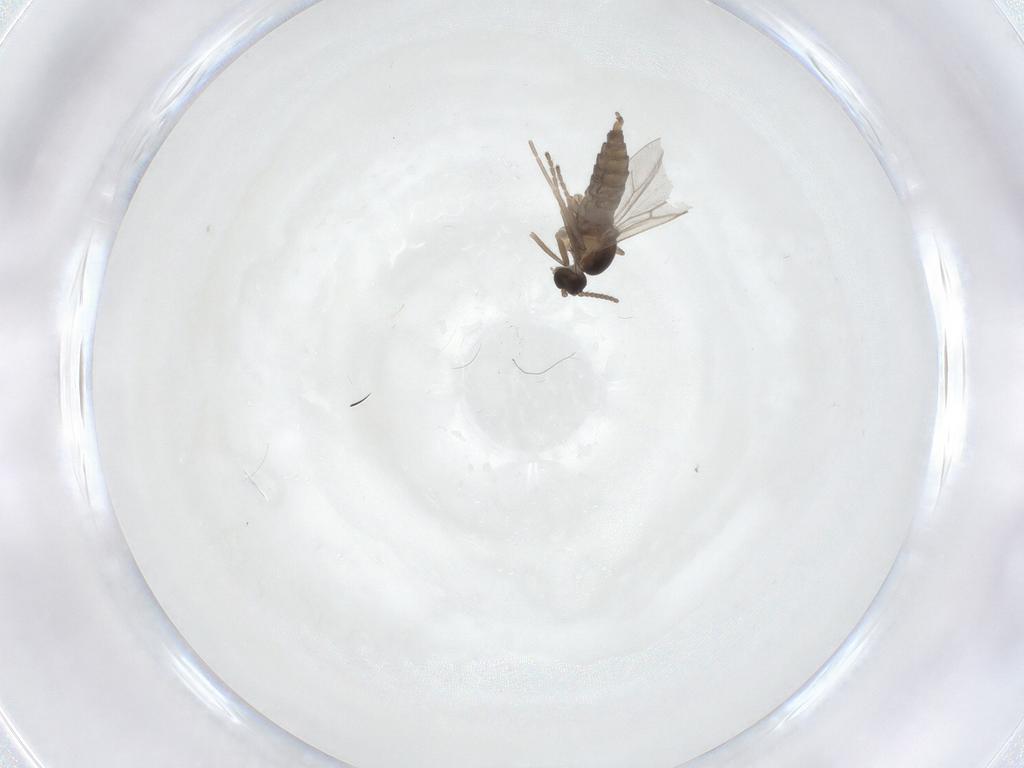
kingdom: Animalia
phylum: Arthropoda
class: Insecta
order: Diptera
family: Cecidomyiidae
